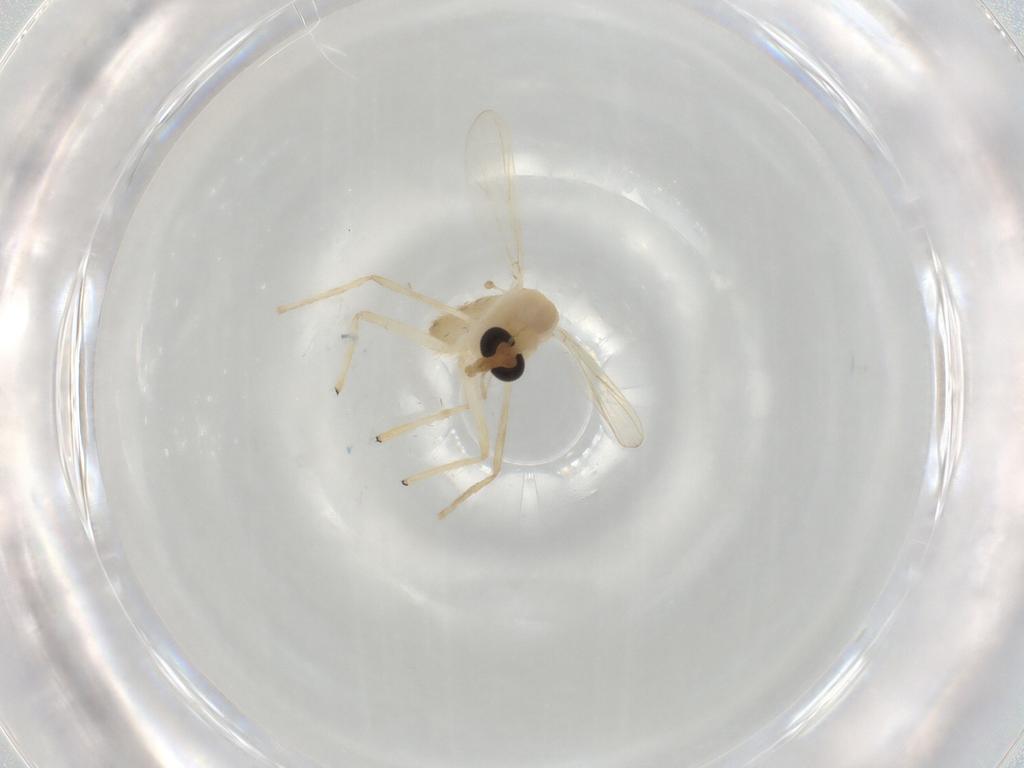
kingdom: Animalia
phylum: Arthropoda
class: Insecta
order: Diptera
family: Chironomidae
